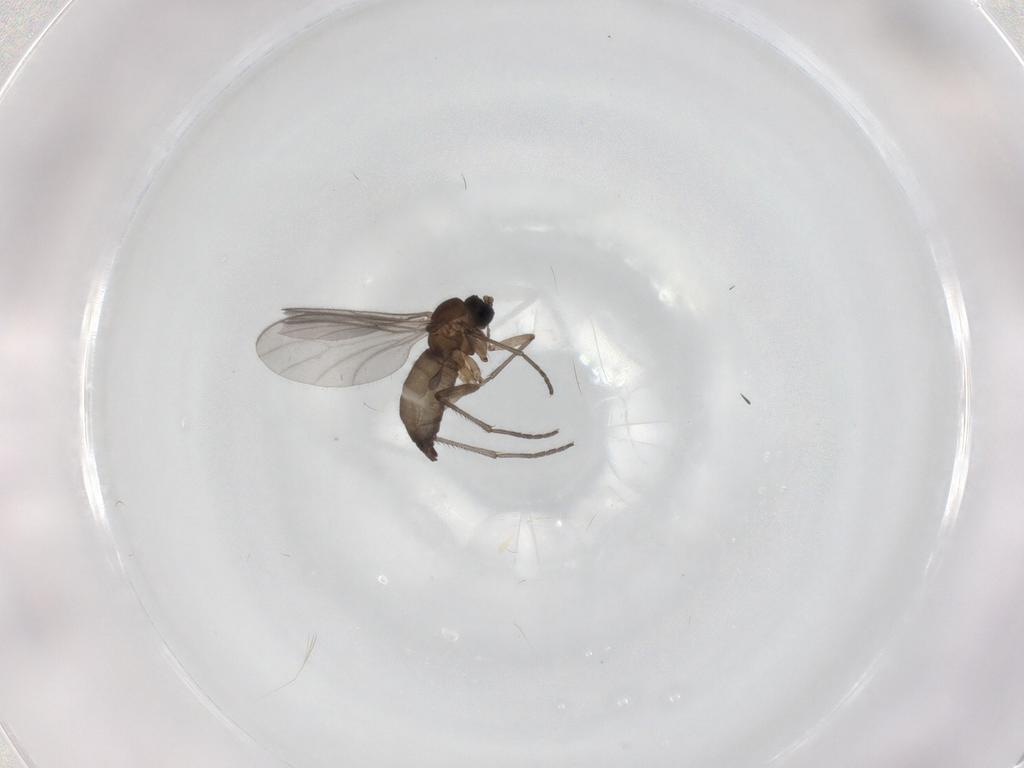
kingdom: Animalia
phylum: Arthropoda
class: Insecta
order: Diptera
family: Sciaridae
